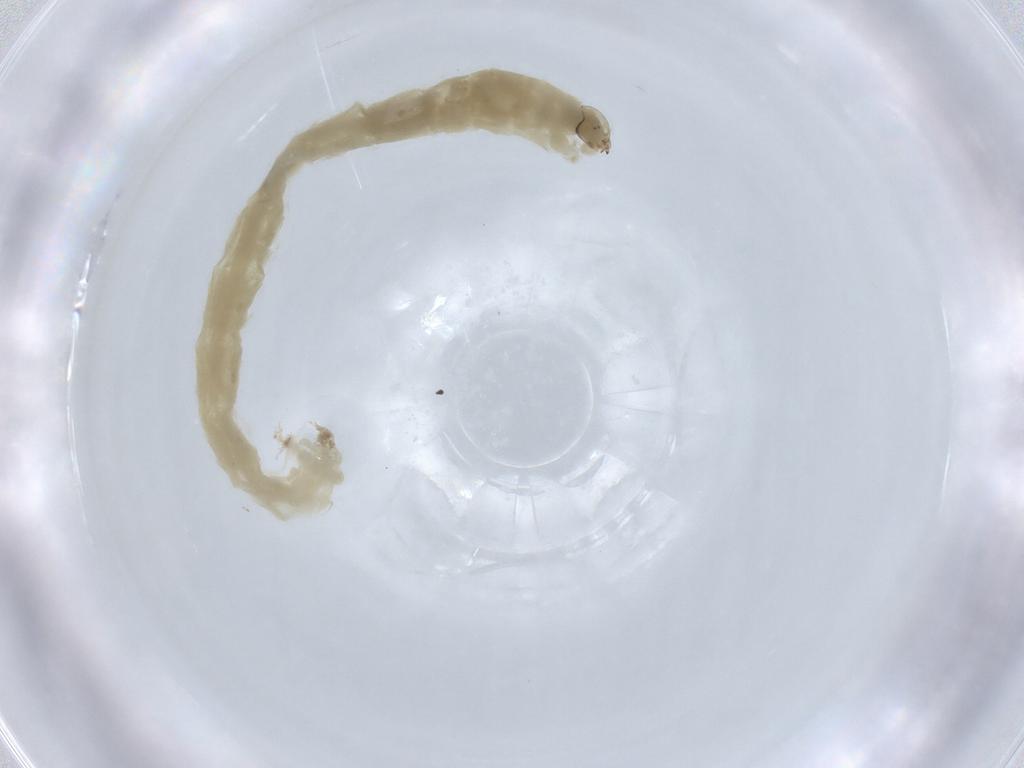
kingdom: Animalia
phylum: Arthropoda
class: Insecta
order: Diptera
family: Chironomidae
